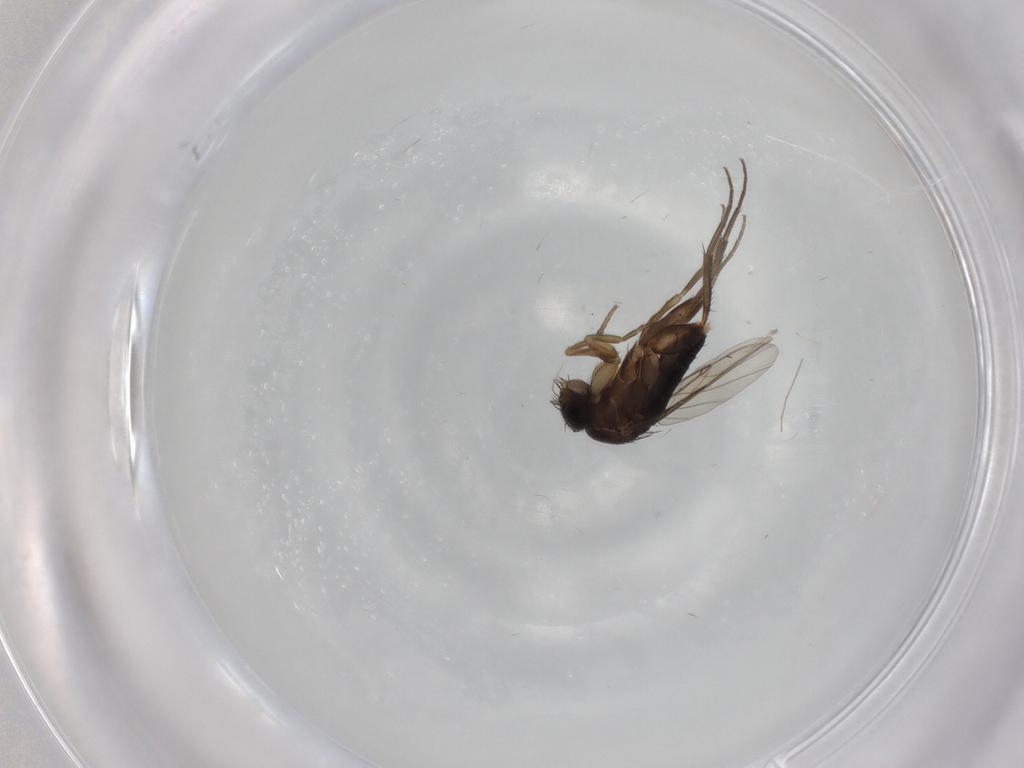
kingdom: Animalia
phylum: Arthropoda
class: Insecta
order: Diptera
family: Phoridae
